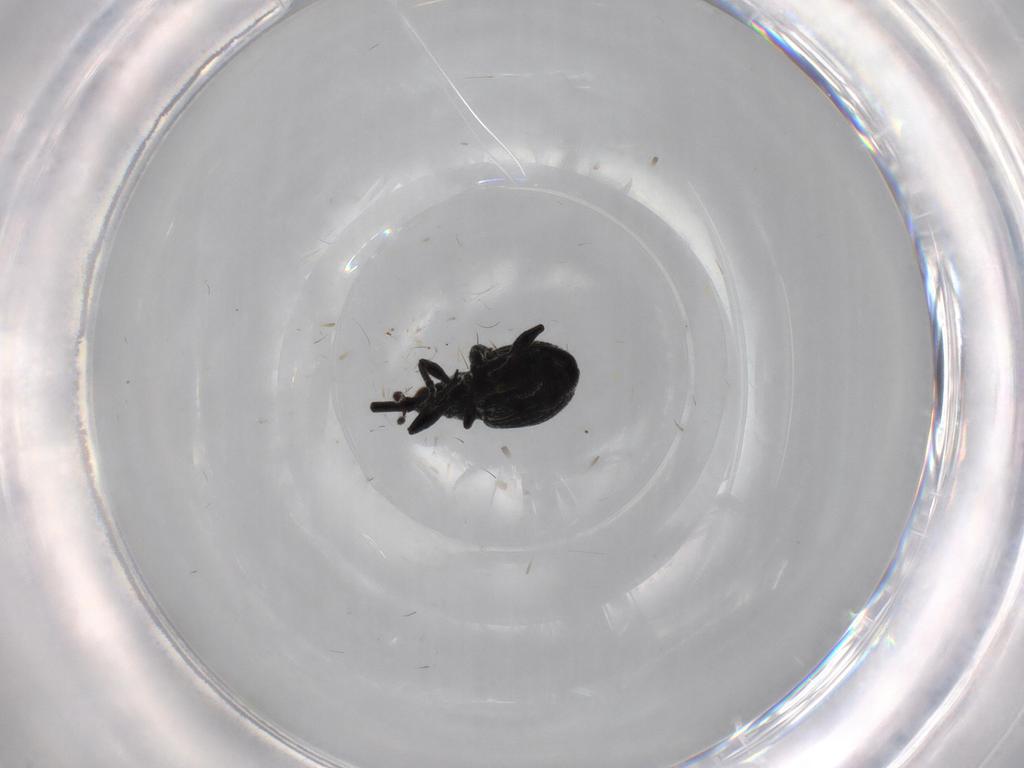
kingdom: Animalia
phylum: Arthropoda
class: Insecta
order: Coleoptera
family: Brentidae
